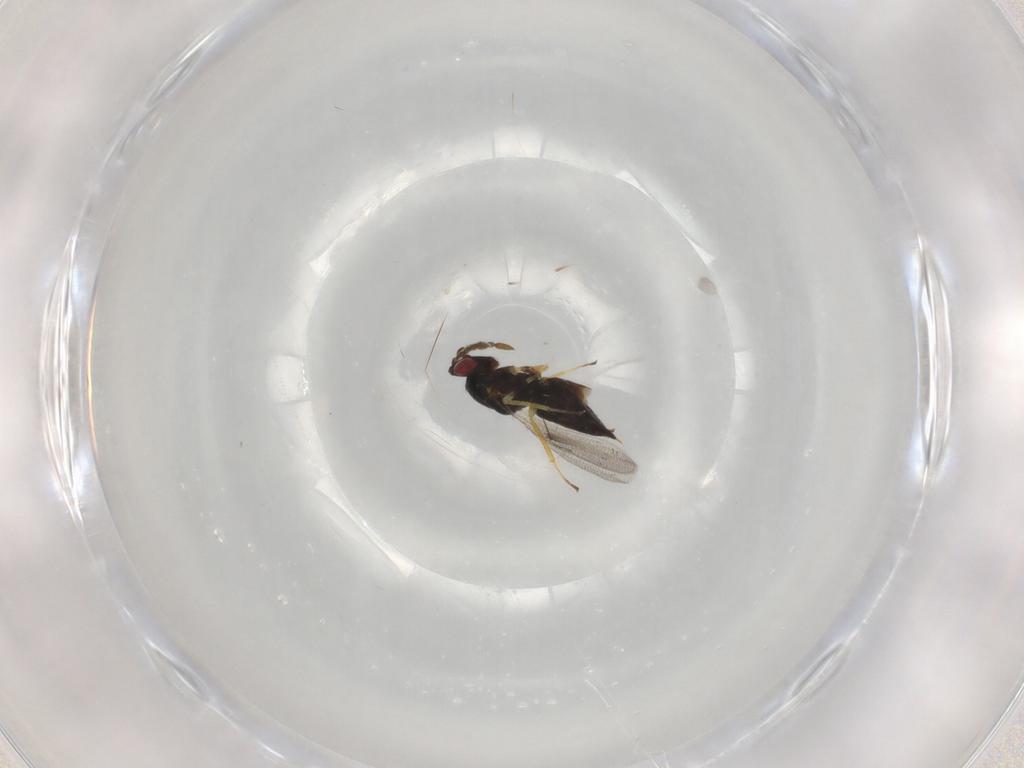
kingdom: Animalia
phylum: Arthropoda
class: Insecta
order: Hymenoptera
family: Eulophidae
